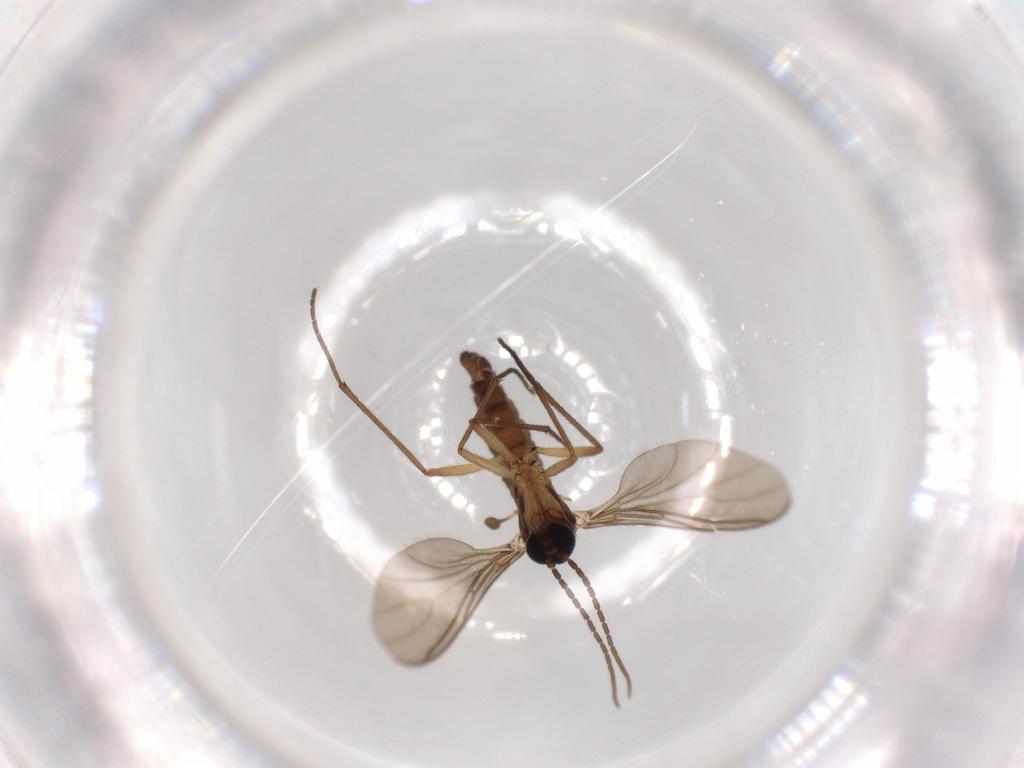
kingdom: Animalia
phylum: Arthropoda
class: Insecta
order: Diptera
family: Sciaridae
